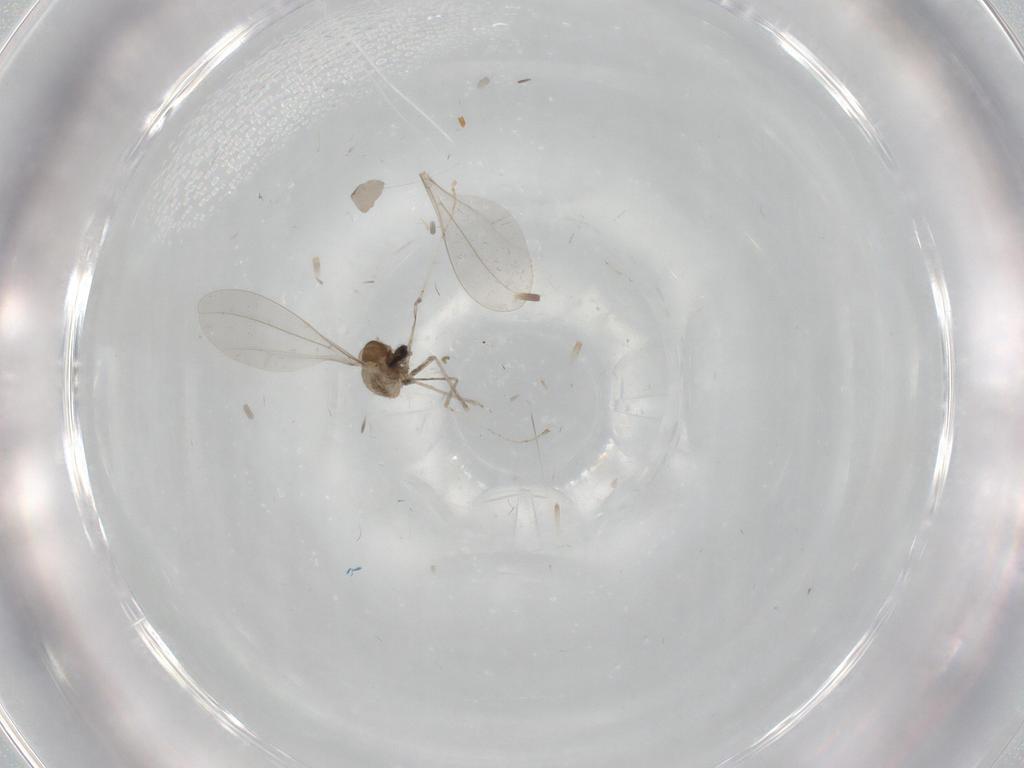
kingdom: Animalia
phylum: Arthropoda
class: Insecta
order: Diptera
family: Cecidomyiidae
